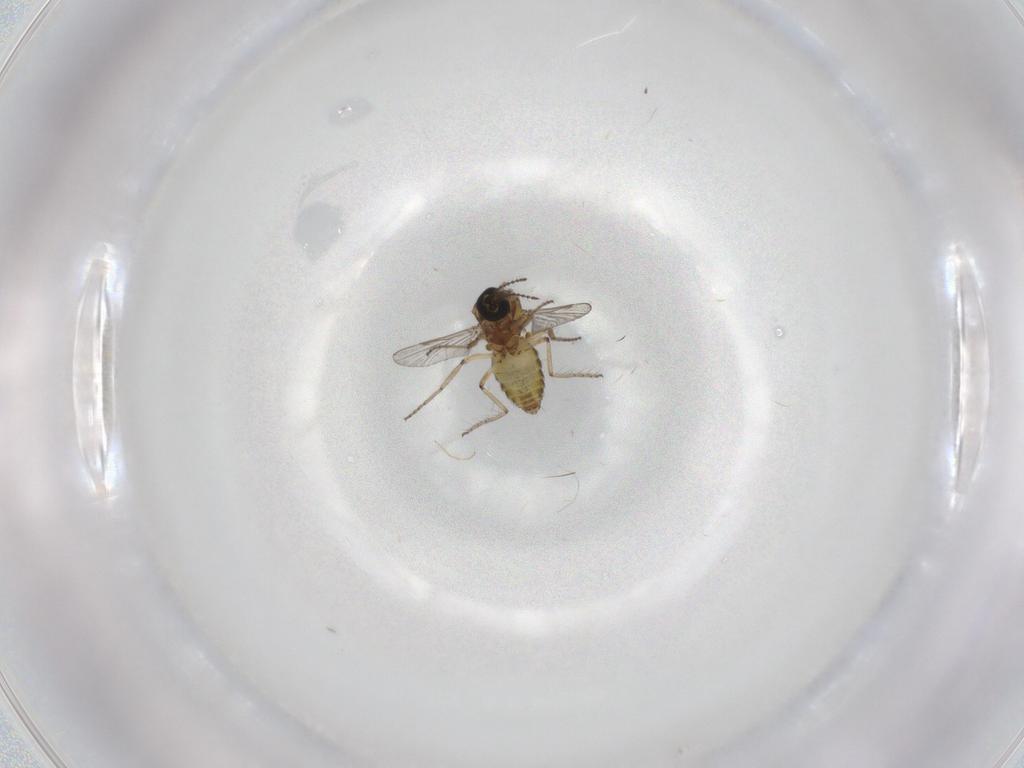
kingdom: Animalia
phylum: Arthropoda
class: Insecta
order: Diptera
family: Ceratopogonidae
